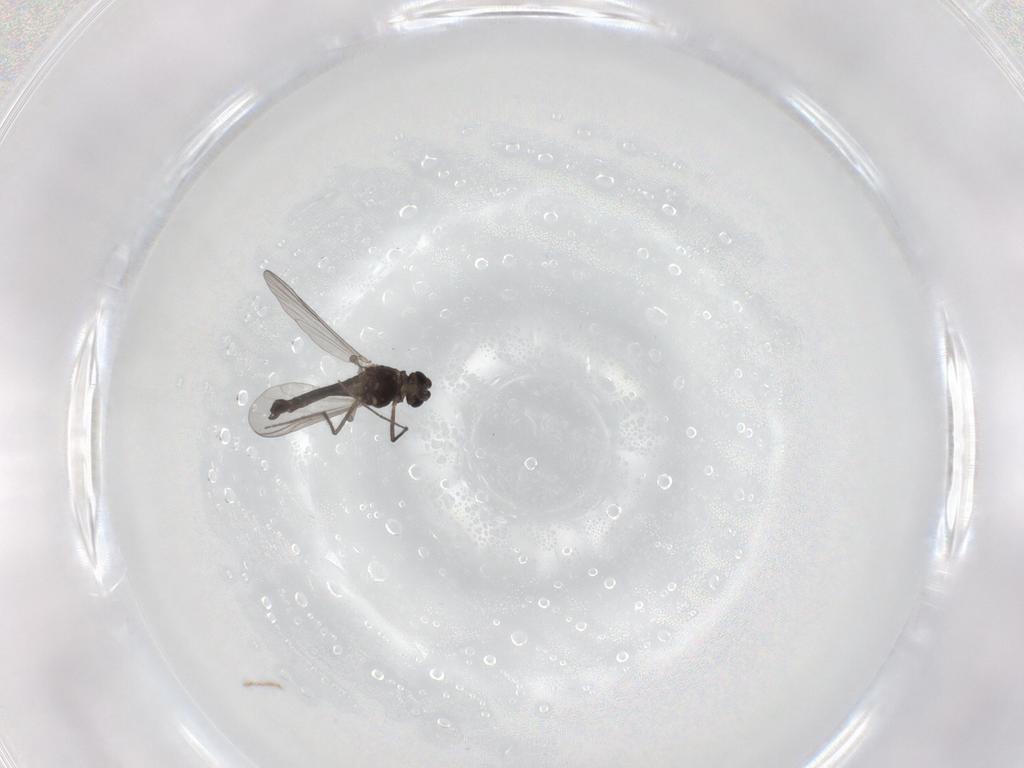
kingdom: Animalia
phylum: Arthropoda
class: Insecta
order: Diptera
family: Chironomidae
